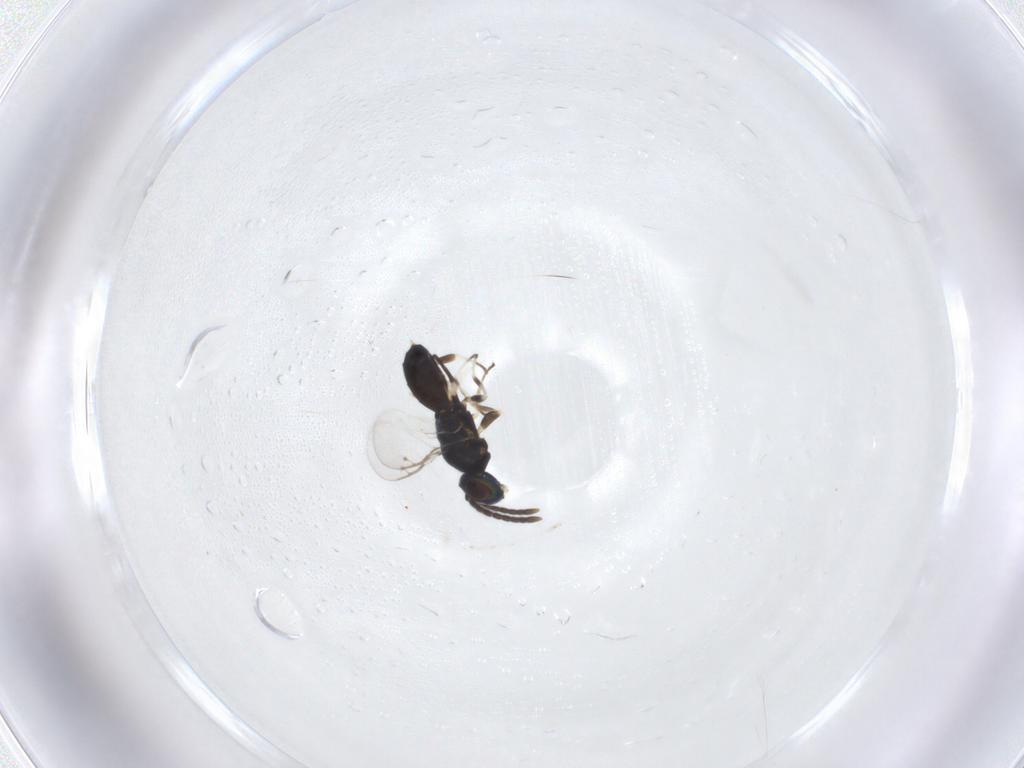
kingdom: Animalia
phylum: Arthropoda
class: Insecta
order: Hymenoptera
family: Eupelmidae
